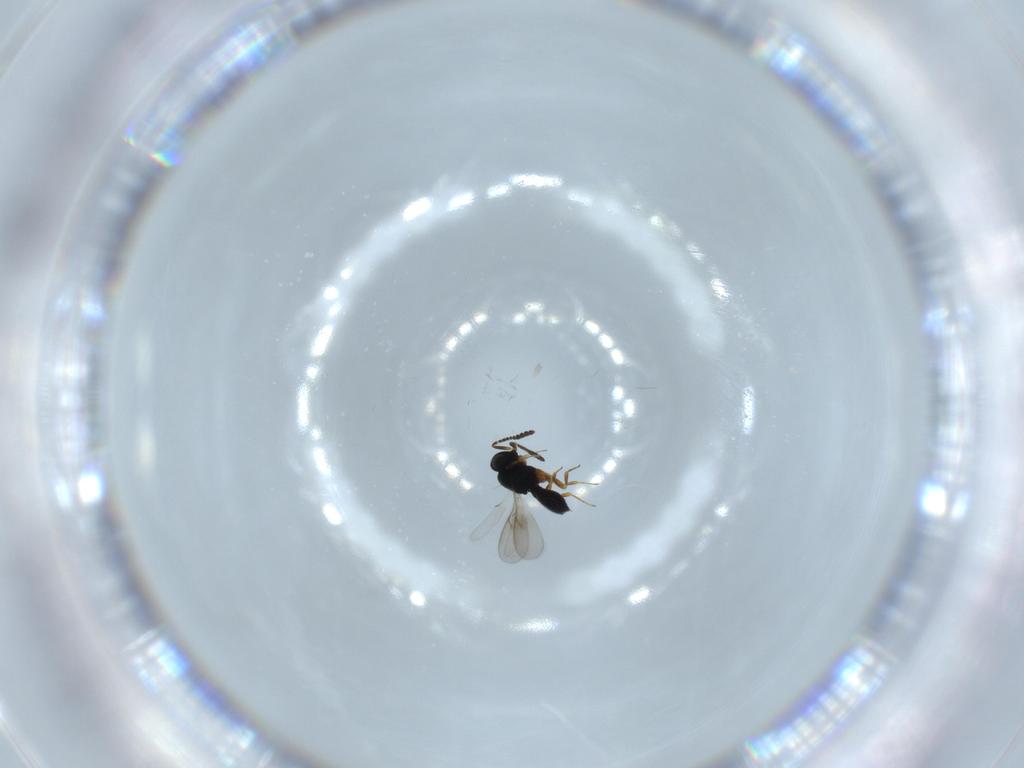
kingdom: Animalia
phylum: Arthropoda
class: Insecta
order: Hymenoptera
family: Scelionidae
